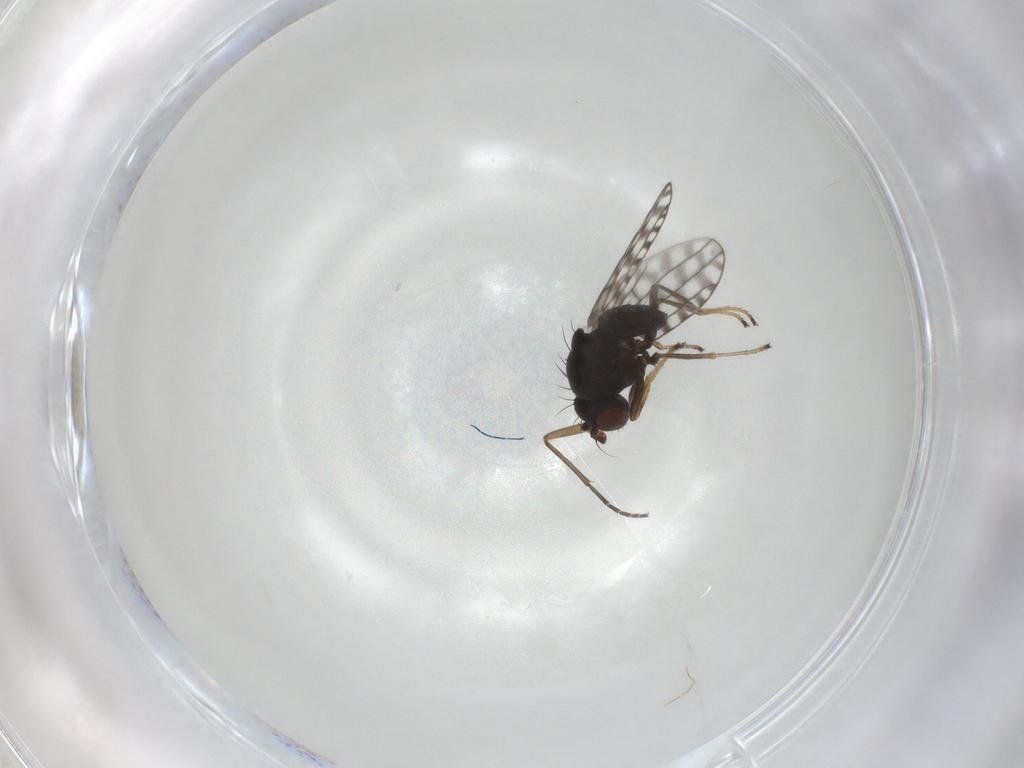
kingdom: Animalia
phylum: Arthropoda
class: Insecta
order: Diptera
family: Ephydridae
